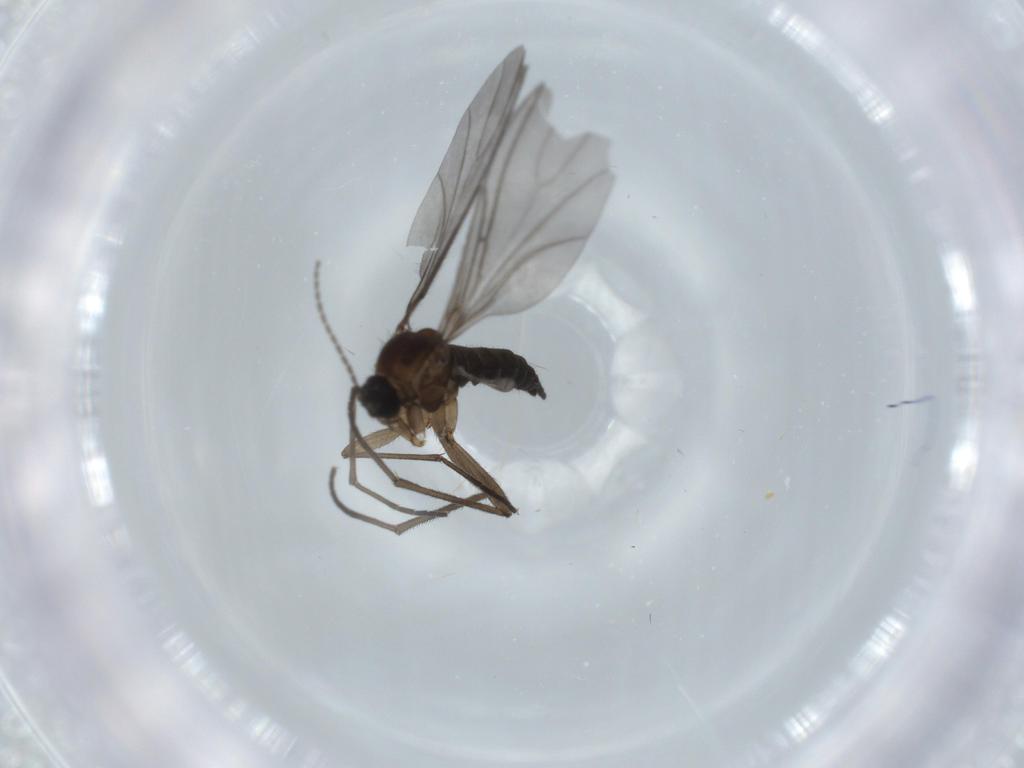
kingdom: Animalia
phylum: Arthropoda
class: Insecta
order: Diptera
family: Sciaridae
